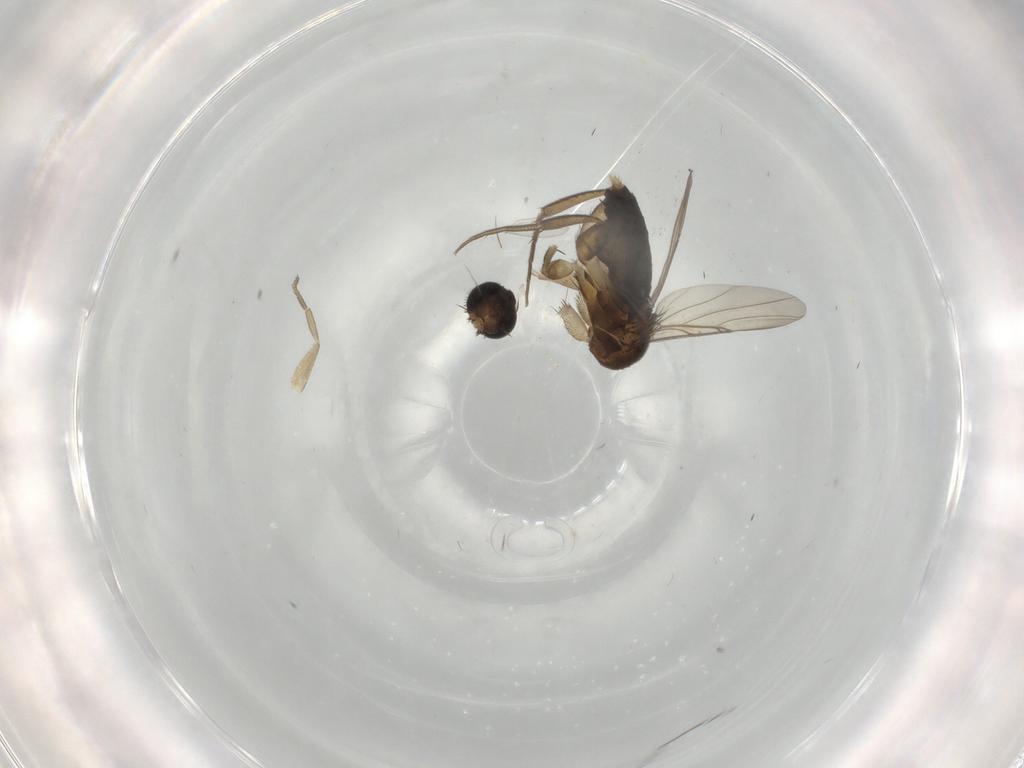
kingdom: Animalia
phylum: Arthropoda
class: Insecta
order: Diptera
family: Phoridae
